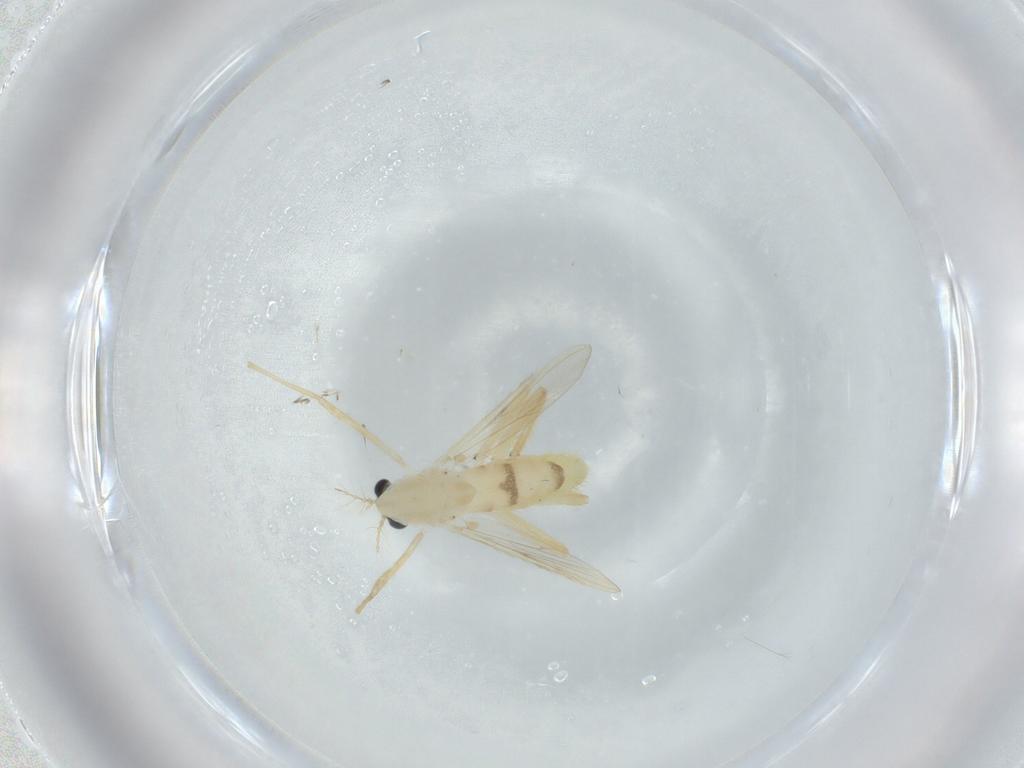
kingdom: Animalia
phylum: Arthropoda
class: Insecta
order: Diptera
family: Chironomidae
